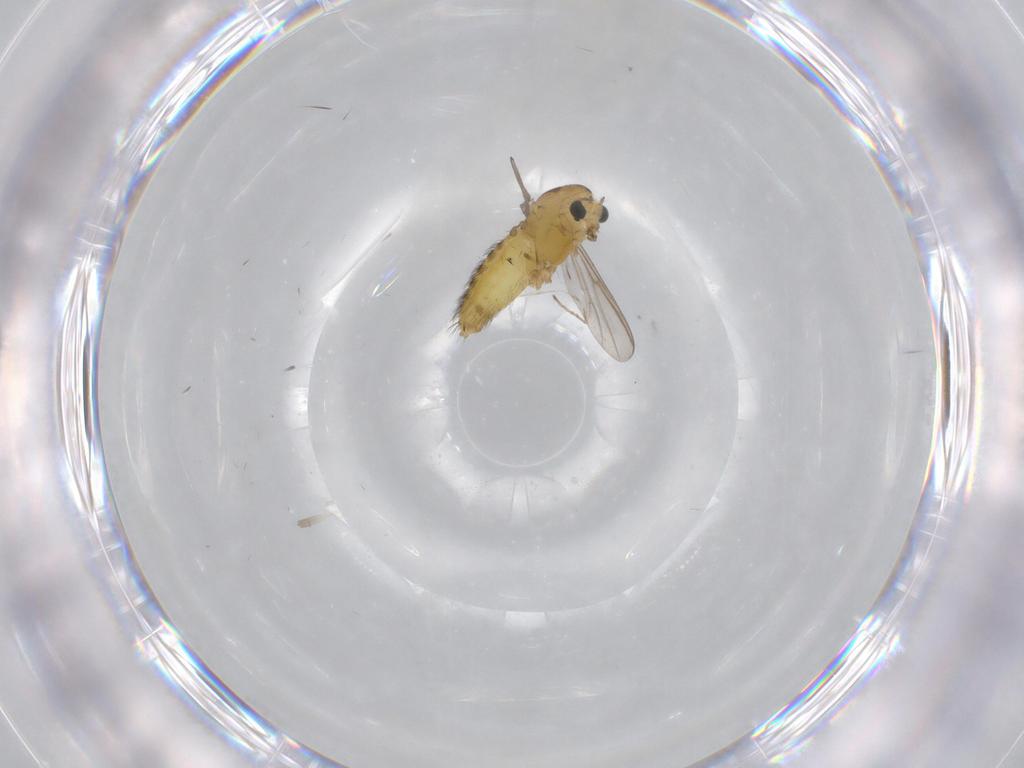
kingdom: Animalia
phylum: Arthropoda
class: Insecta
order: Diptera
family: Chironomidae
